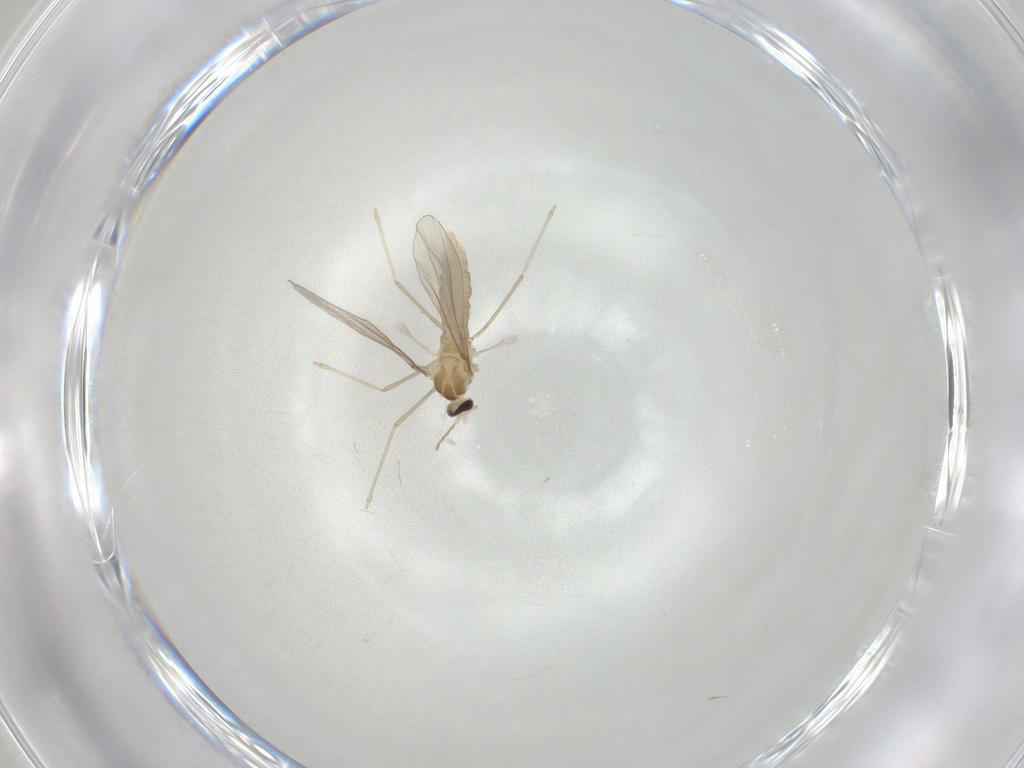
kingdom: Animalia
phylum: Arthropoda
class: Insecta
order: Diptera
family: Cecidomyiidae
